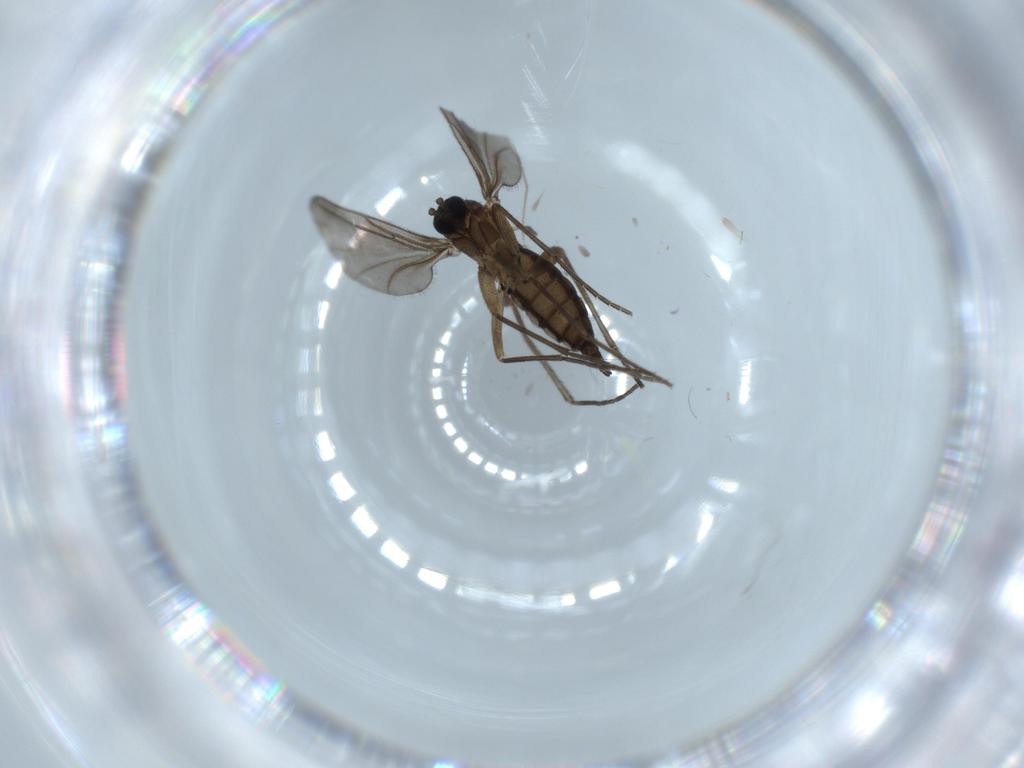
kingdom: Animalia
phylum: Arthropoda
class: Insecta
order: Diptera
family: Sciaridae
